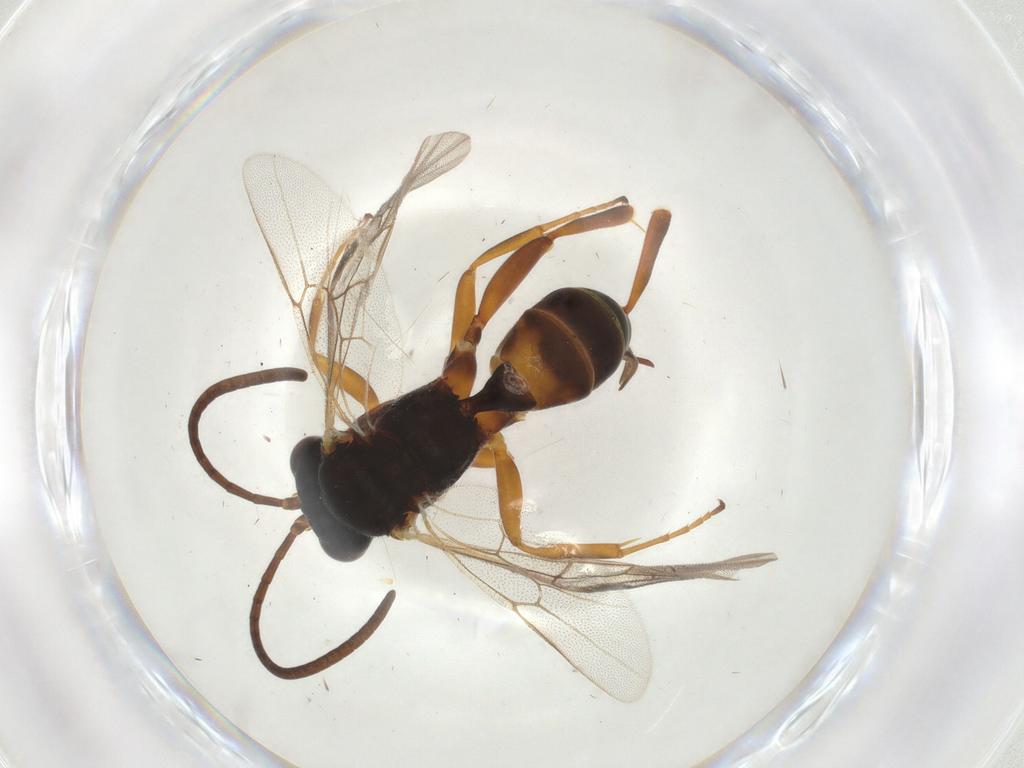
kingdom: Animalia
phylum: Arthropoda
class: Insecta
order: Hymenoptera
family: Ichneumonidae
